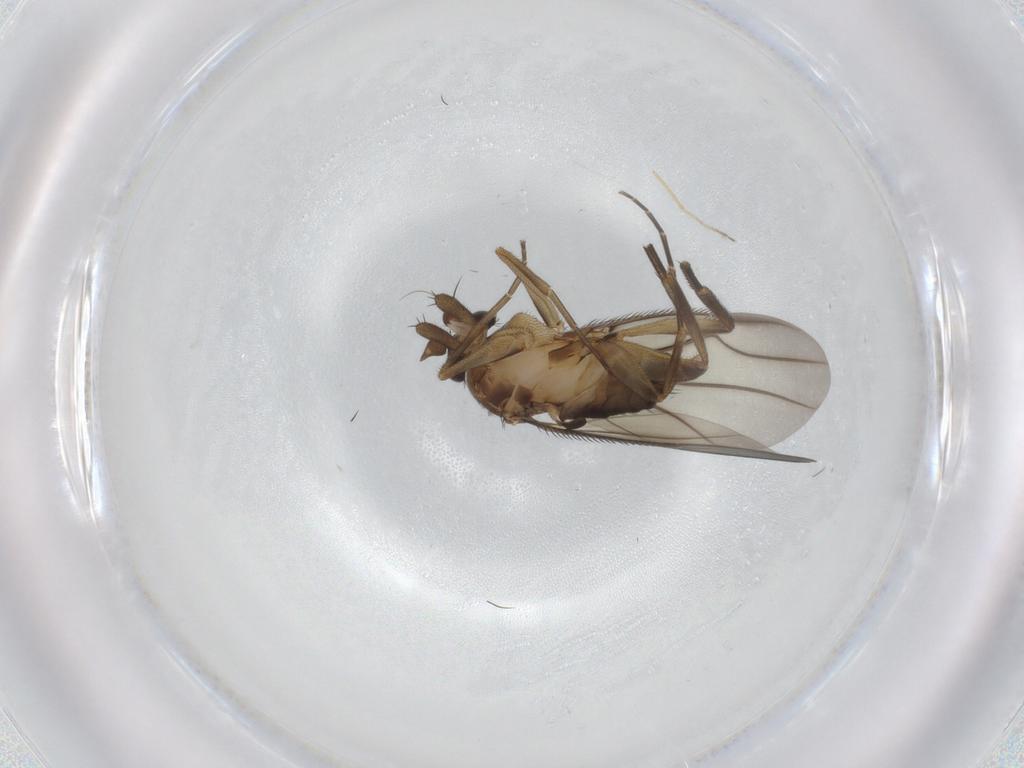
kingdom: Animalia
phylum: Arthropoda
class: Insecta
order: Diptera
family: Phoridae
